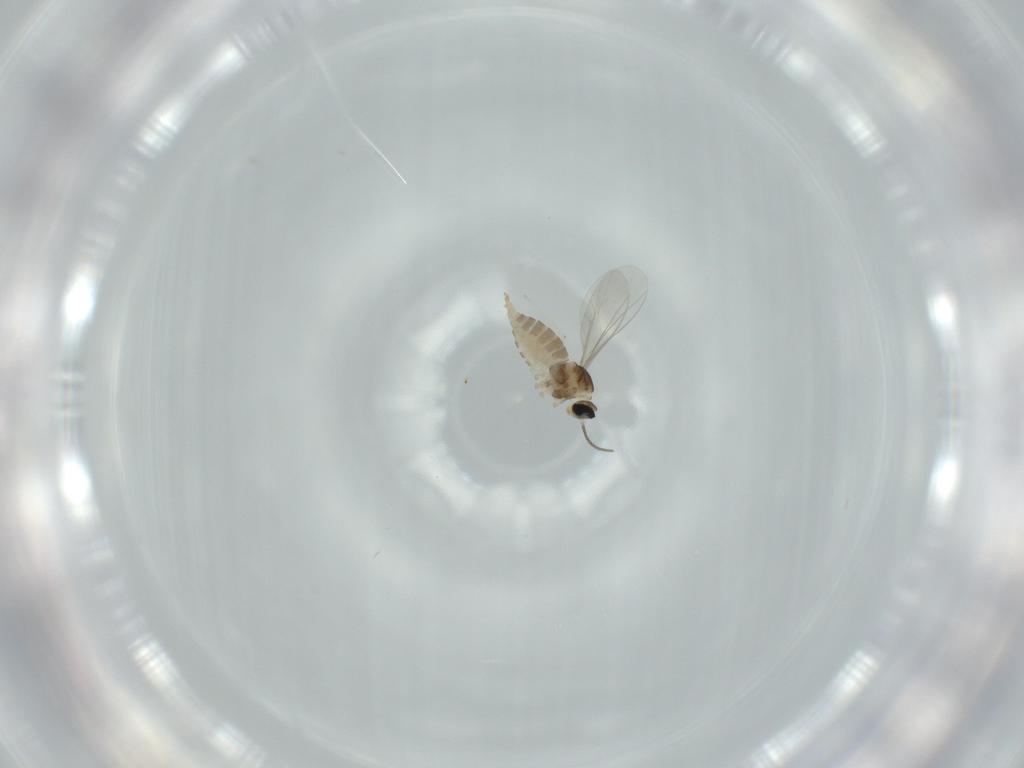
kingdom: Animalia
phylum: Arthropoda
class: Insecta
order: Diptera
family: Cecidomyiidae
